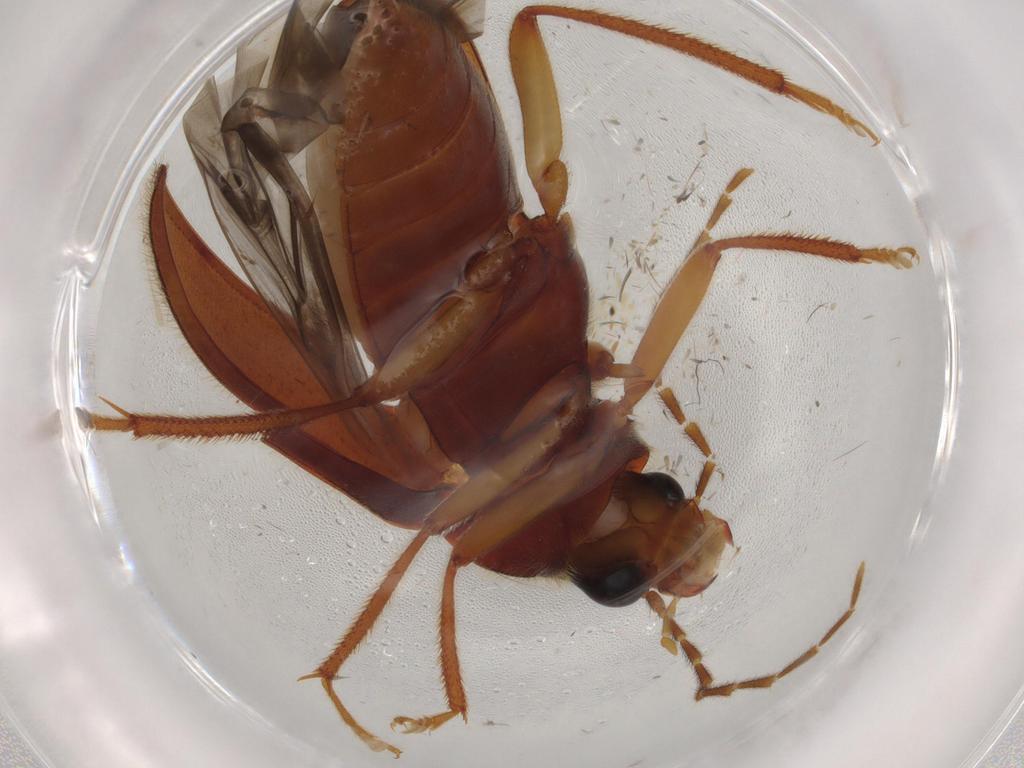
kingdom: Animalia
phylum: Arthropoda
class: Insecta
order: Coleoptera
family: Ptilodactylidae
